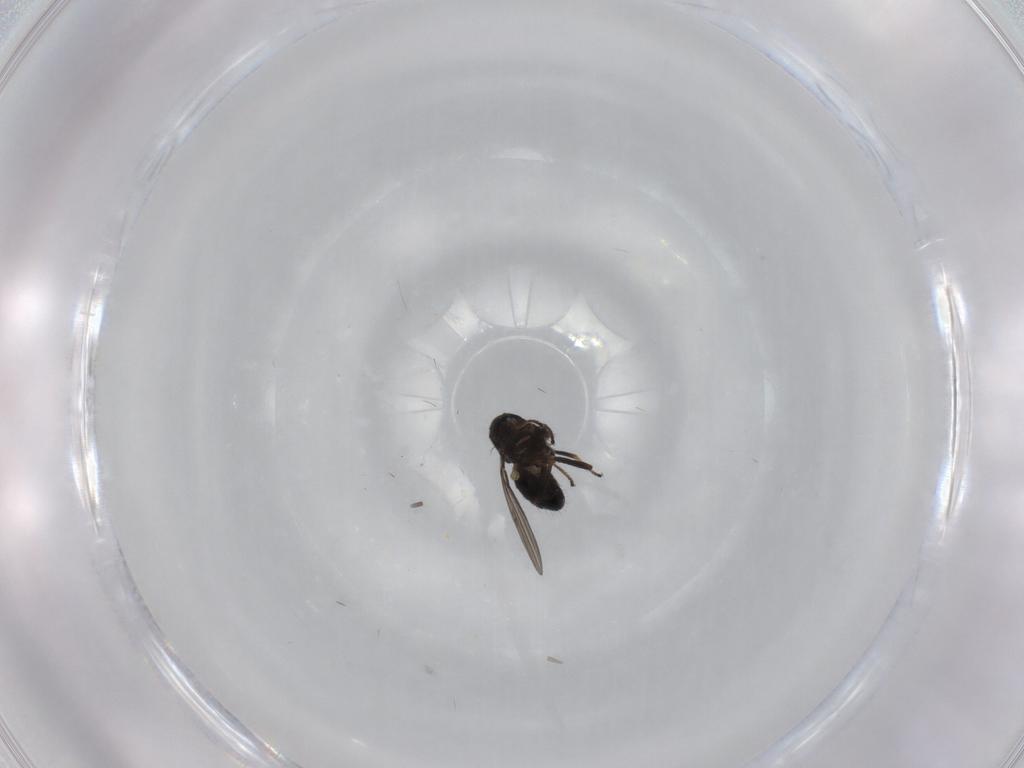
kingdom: Animalia
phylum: Arthropoda
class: Insecta
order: Diptera
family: Ephydridae
